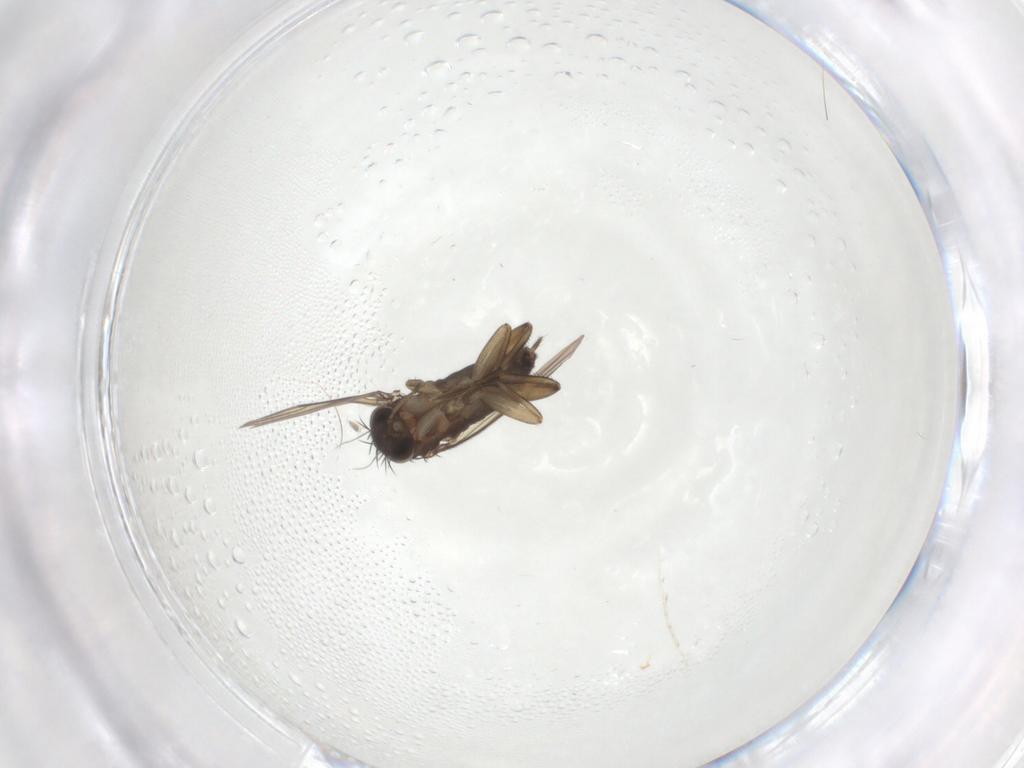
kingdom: Animalia
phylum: Arthropoda
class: Insecta
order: Diptera
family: Phoridae
